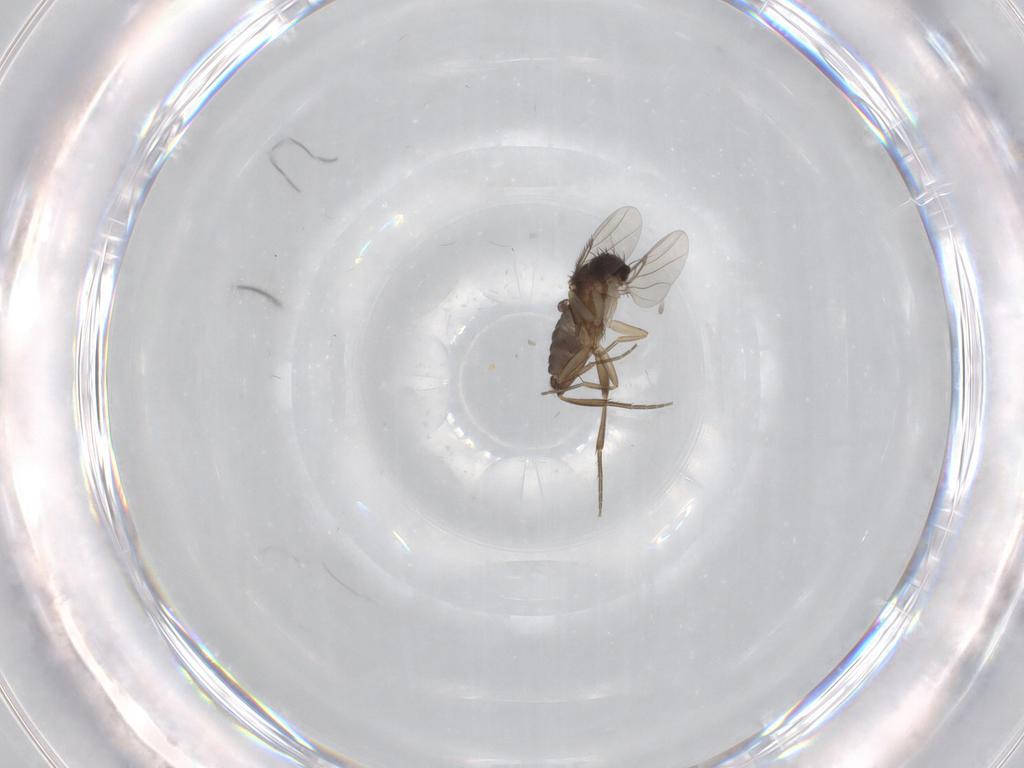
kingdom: Animalia
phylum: Arthropoda
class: Insecta
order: Diptera
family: Phoridae
